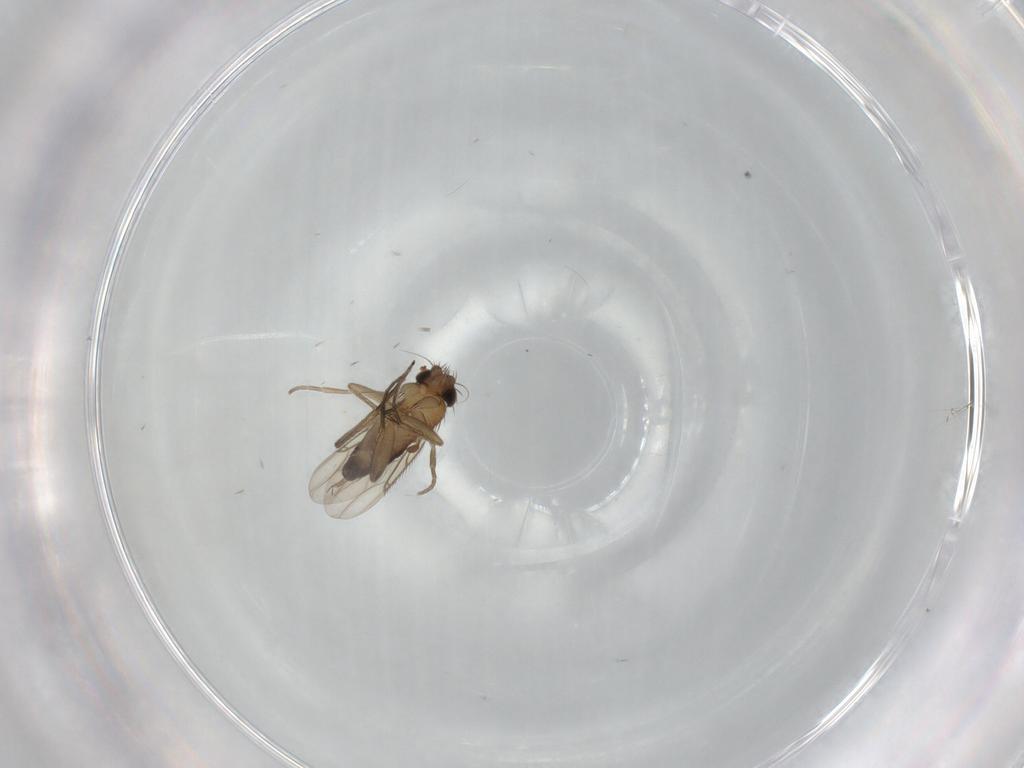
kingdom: Animalia
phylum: Arthropoda
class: Insecta
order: Diptera
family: Phoridae
